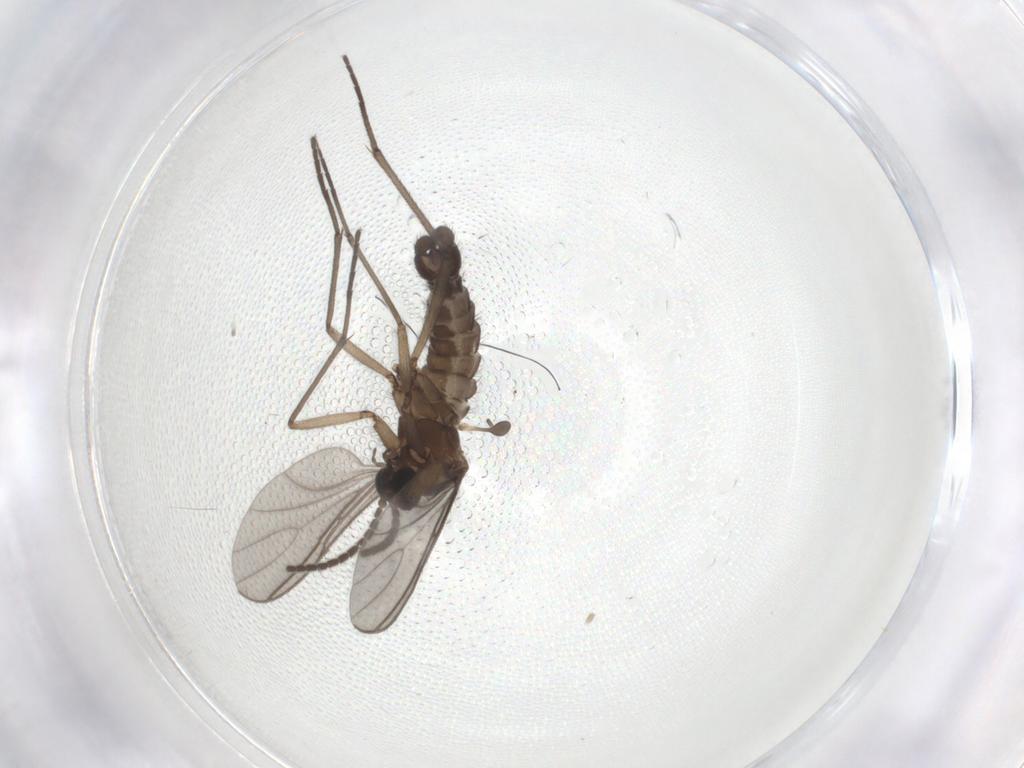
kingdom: Animalia
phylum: Arthropoda
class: Insecta
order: Diptera
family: Sciaridae
